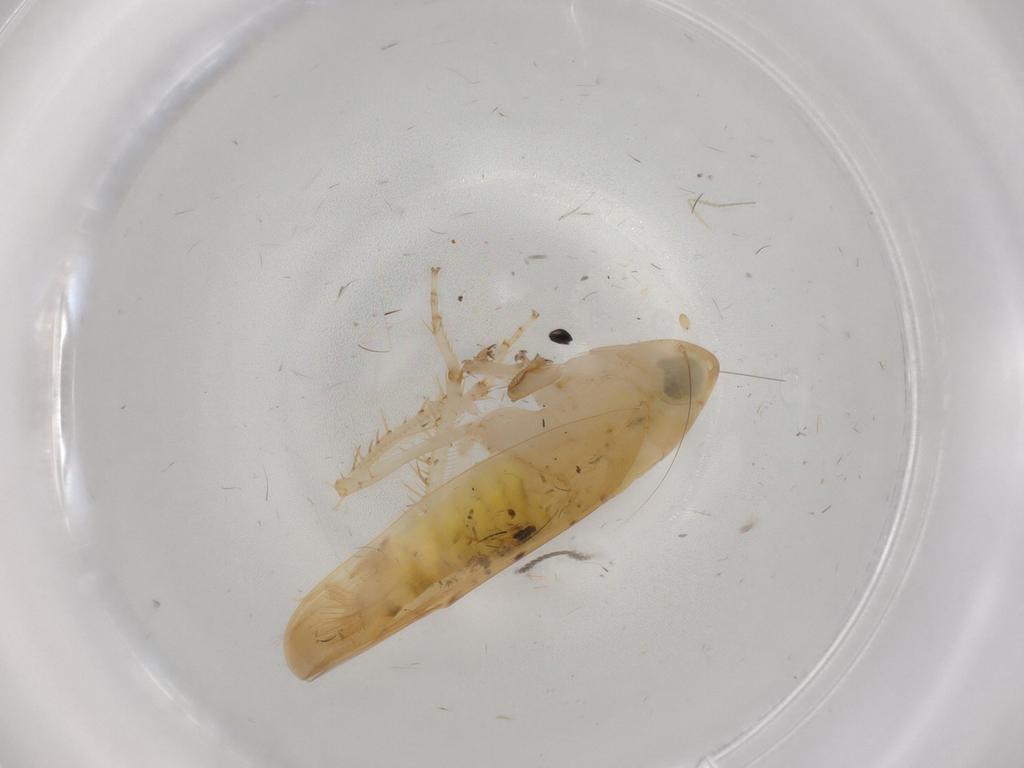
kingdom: Animalia
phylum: Arthropoda
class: Insecta
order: Hemiptera
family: Cicadellidae
